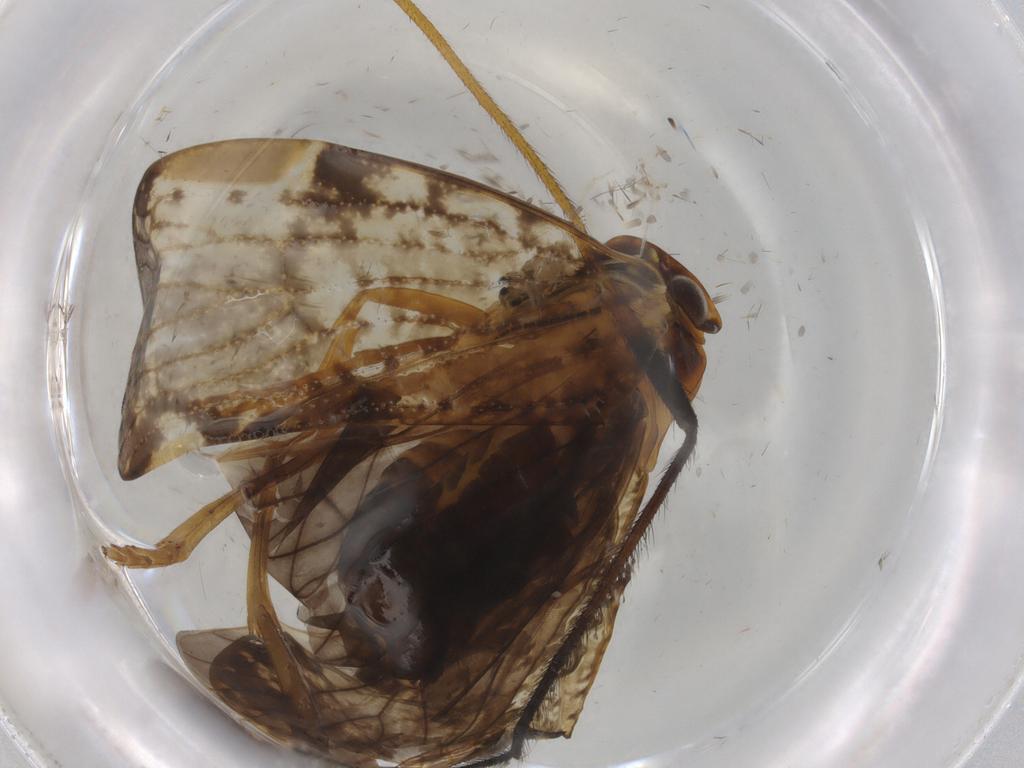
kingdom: Animalia
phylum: Arthropoda
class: Insecta
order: Hemiptera
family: Cixiidae
